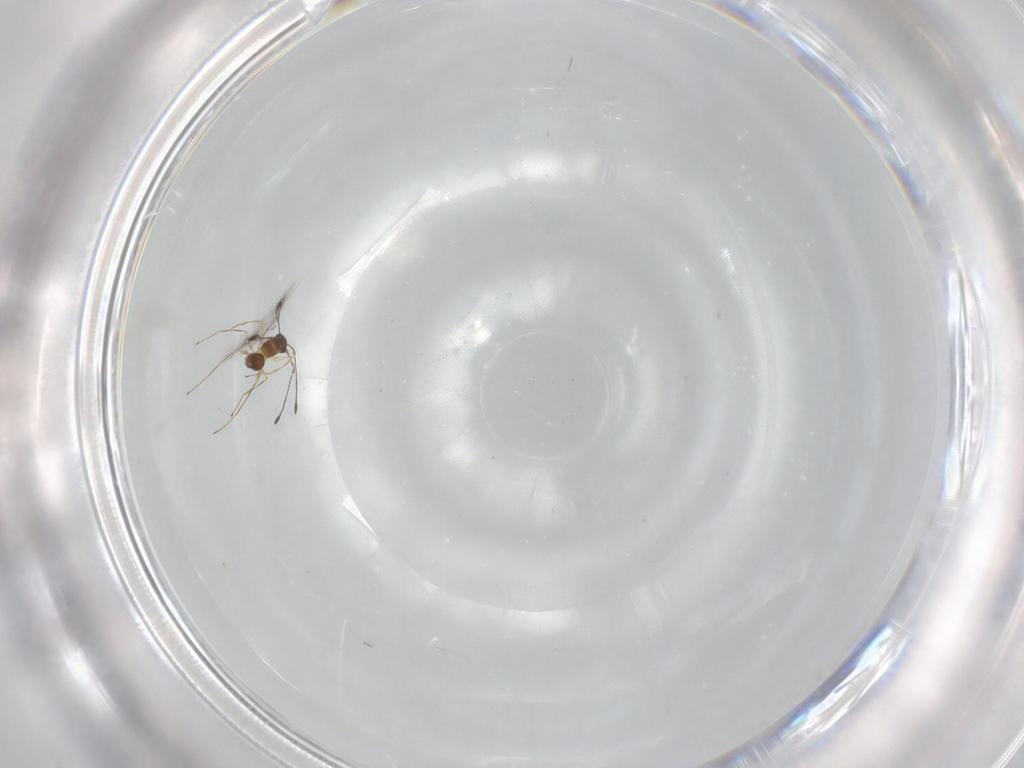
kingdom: Animalia
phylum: Arthropoda
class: Insecta
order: Hymenoptera
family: Mymaridae
